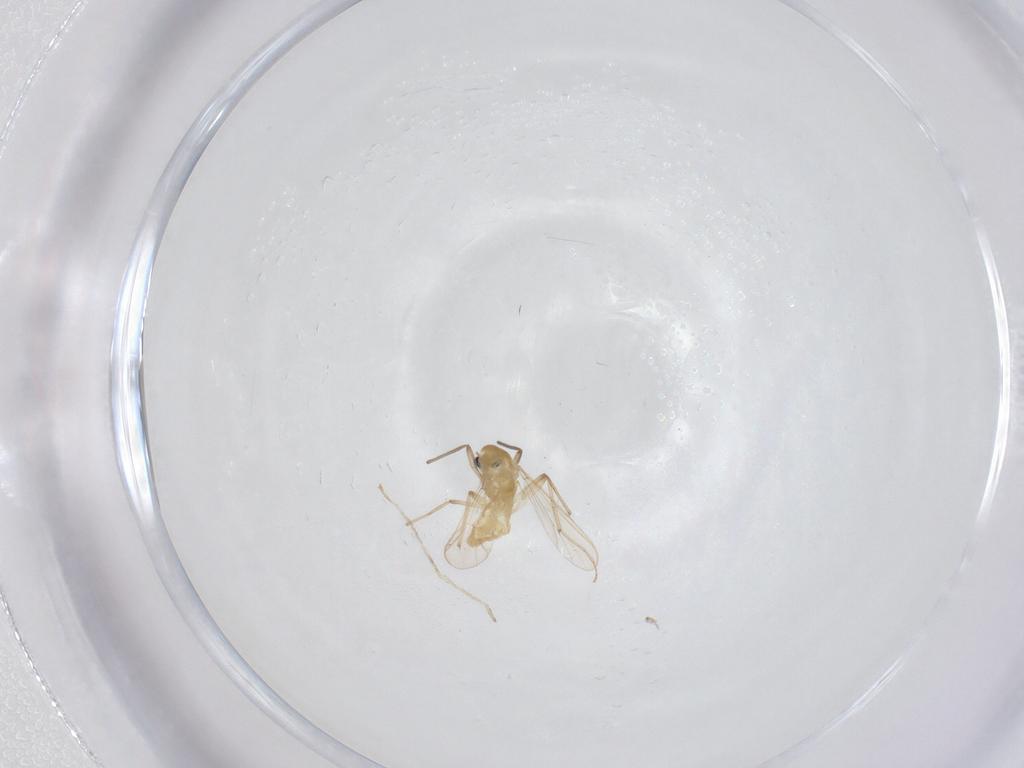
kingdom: Animalia
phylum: Arthropoda
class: Insecta
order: Diptera
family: Chironomidae
